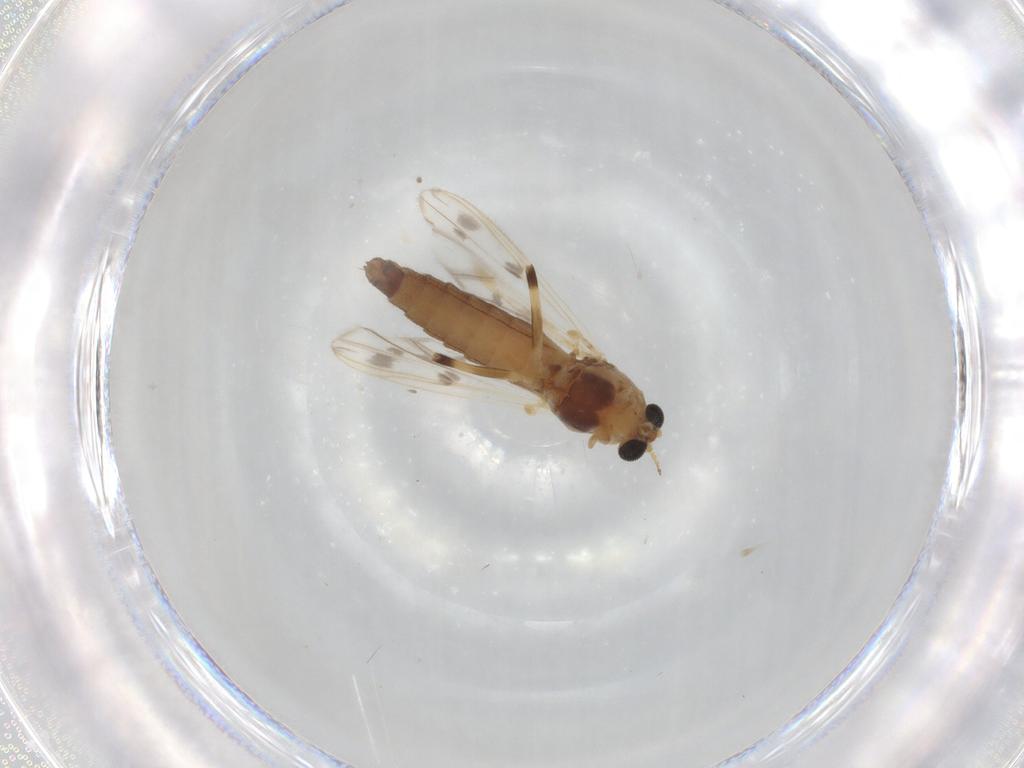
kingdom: Animalia
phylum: Arthropoda
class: Insecta
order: Diptera
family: Chironomidae
